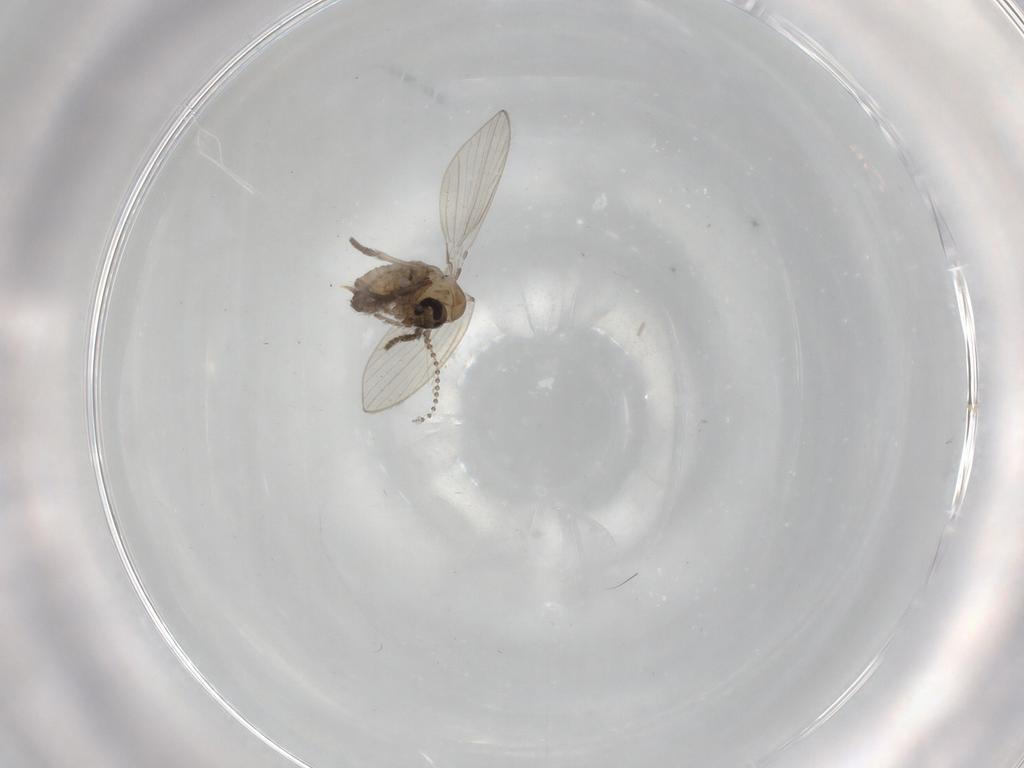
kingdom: Animalia
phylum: Arthropoda
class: Insecta
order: Diptera
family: Psychodidae
